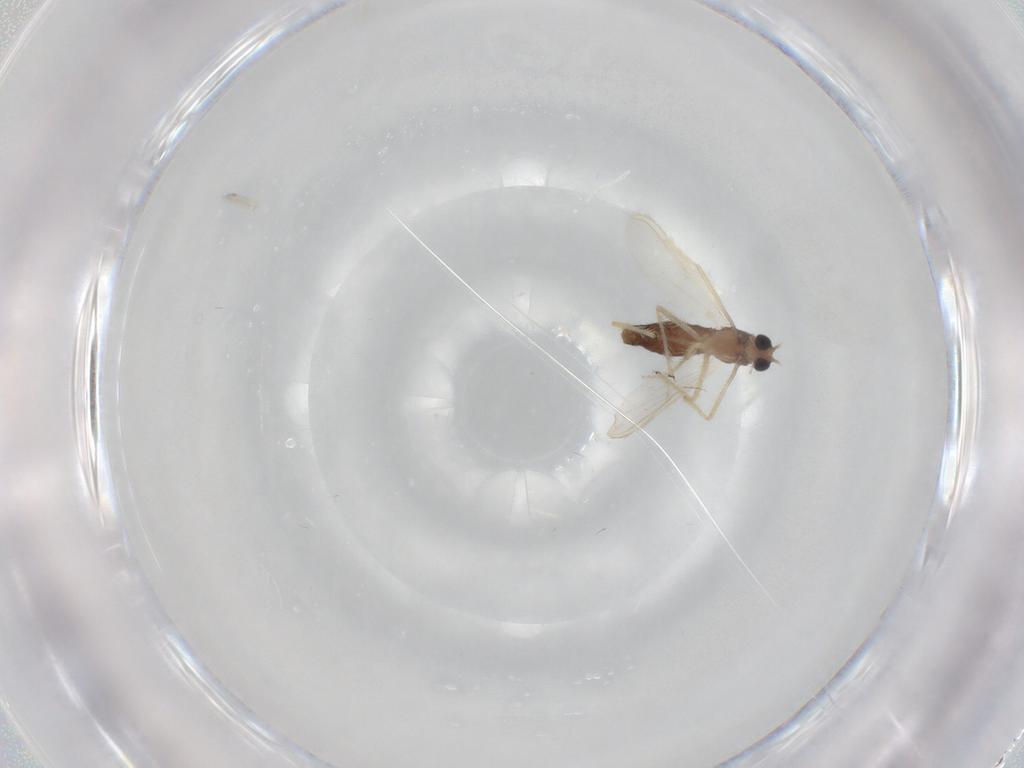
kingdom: Animalia
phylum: Arthropoda
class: Insecta
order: Diptera
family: Chironomidae
